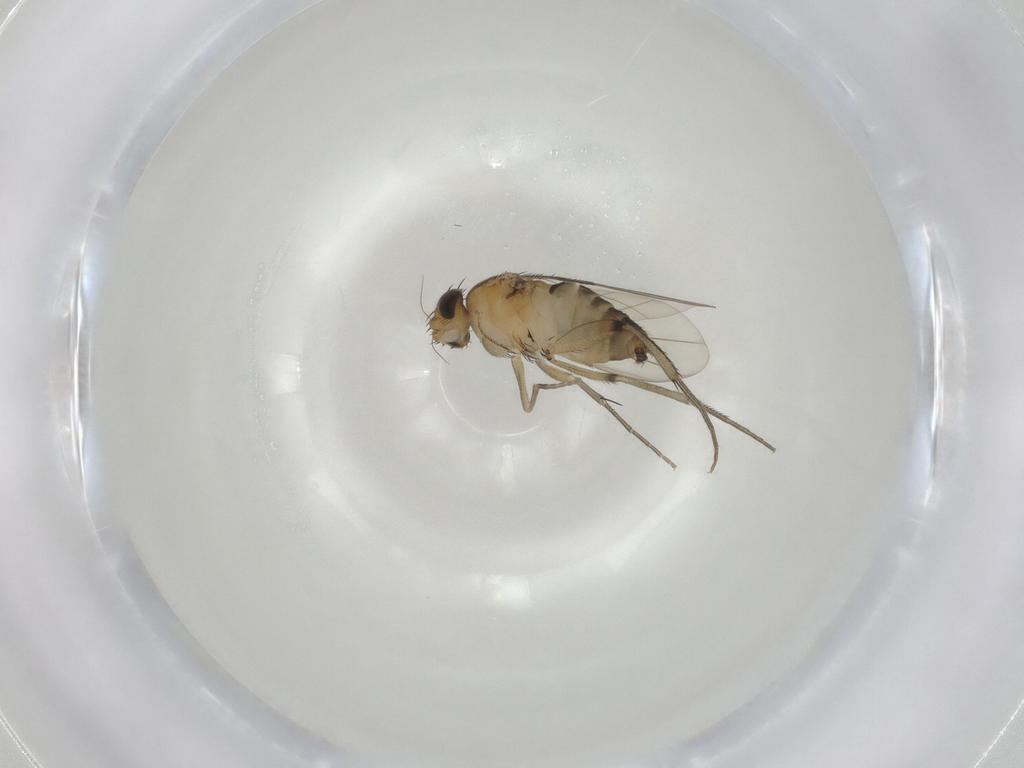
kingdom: Animalia
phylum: Arthropoda
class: Insecta
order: Diptera
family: Phoridae
